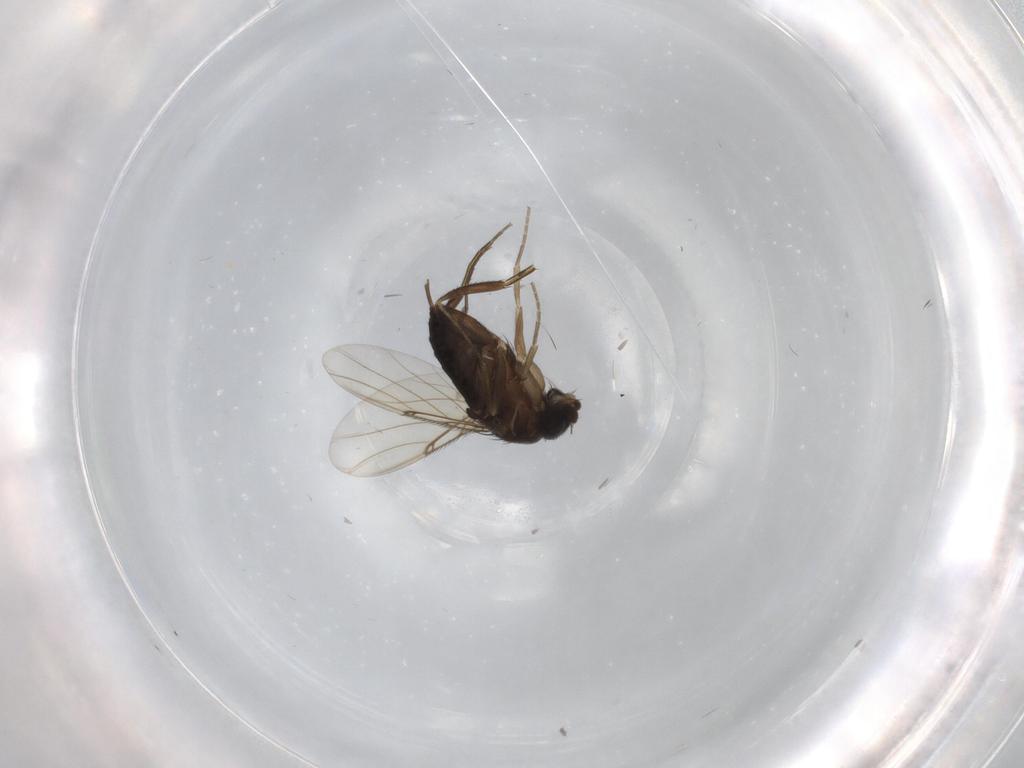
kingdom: Animalia
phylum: Arthropoda
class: Insecta
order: Diptera
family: Phoridae
